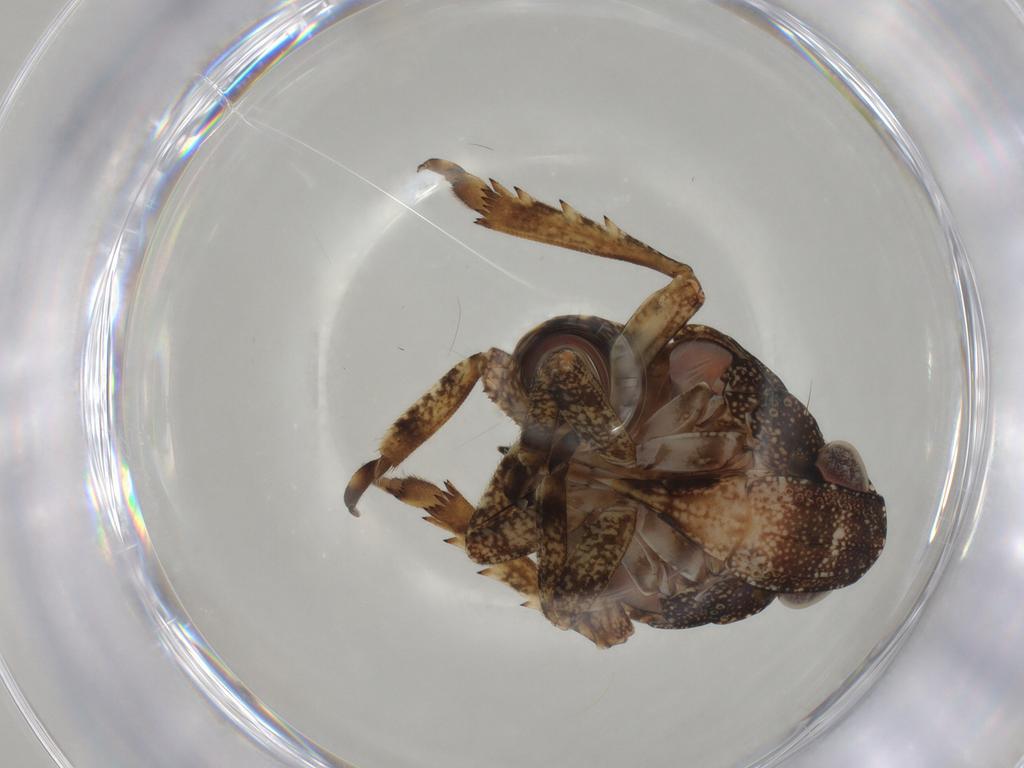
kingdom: Animalia
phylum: Arthropoda
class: Insecta
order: Hemiptera
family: Nogodinidae
